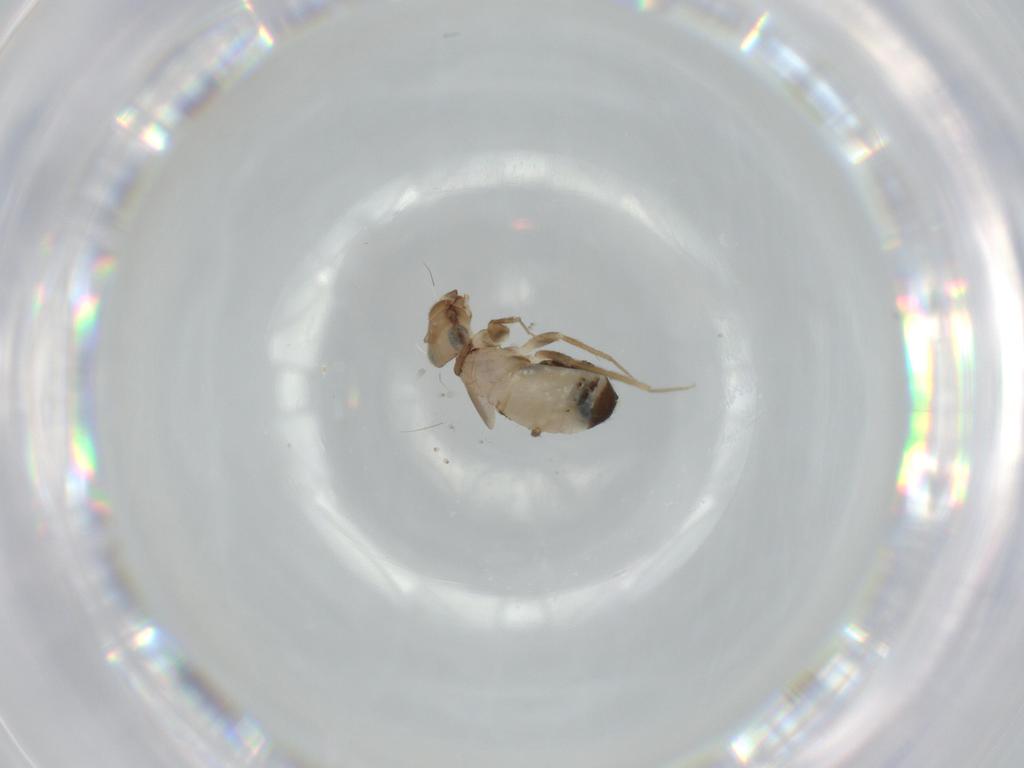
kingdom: Animalia
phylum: Arthropoda
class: Insecta
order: Psocodea
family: Lepidopsocidae
